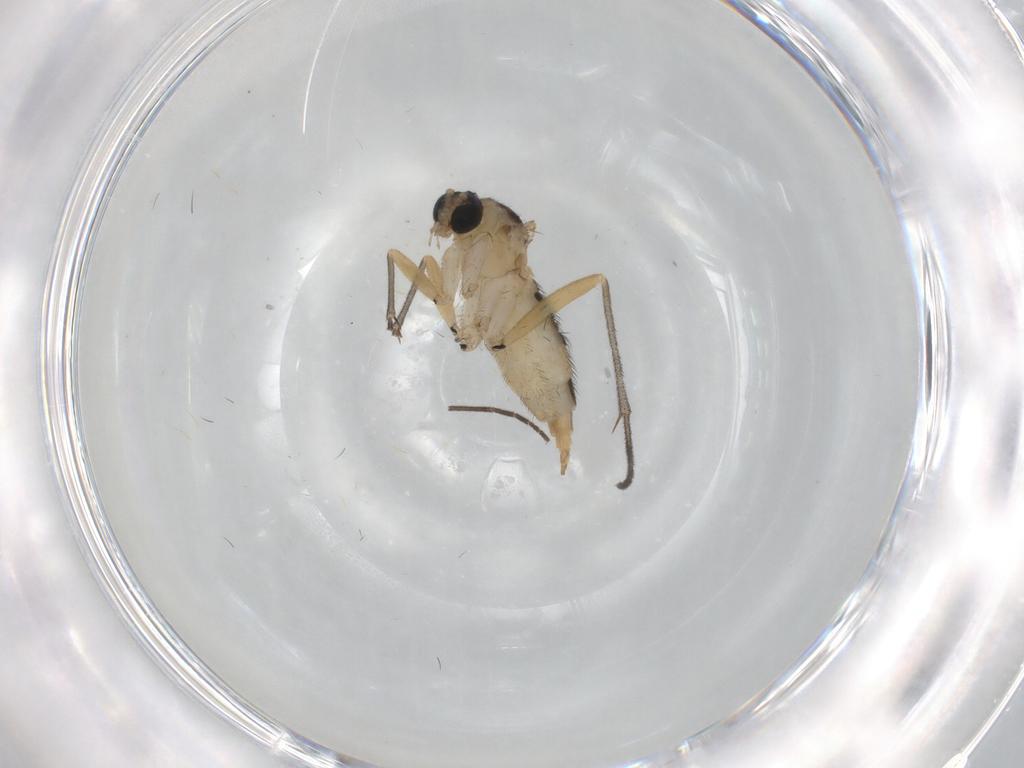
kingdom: Animalia
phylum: Arthropoda
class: Insecta
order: Diptera
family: Sciaridae
